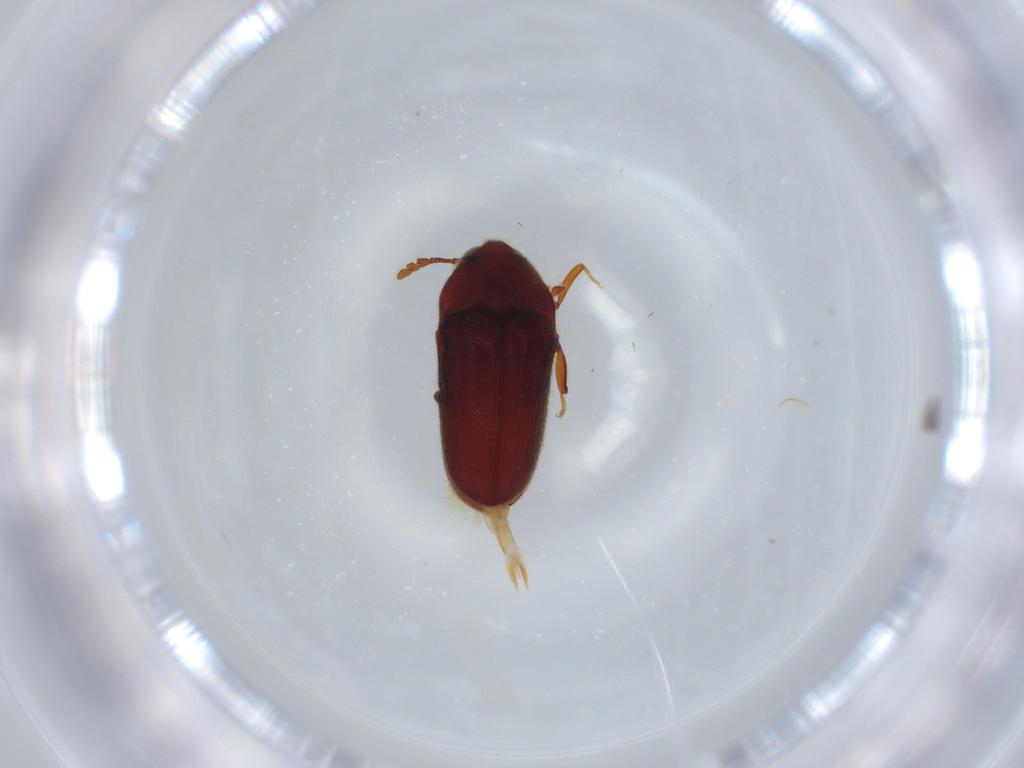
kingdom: Animalia
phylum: Arthropoda
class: Insecta
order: Coleoptera
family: Throscidae
